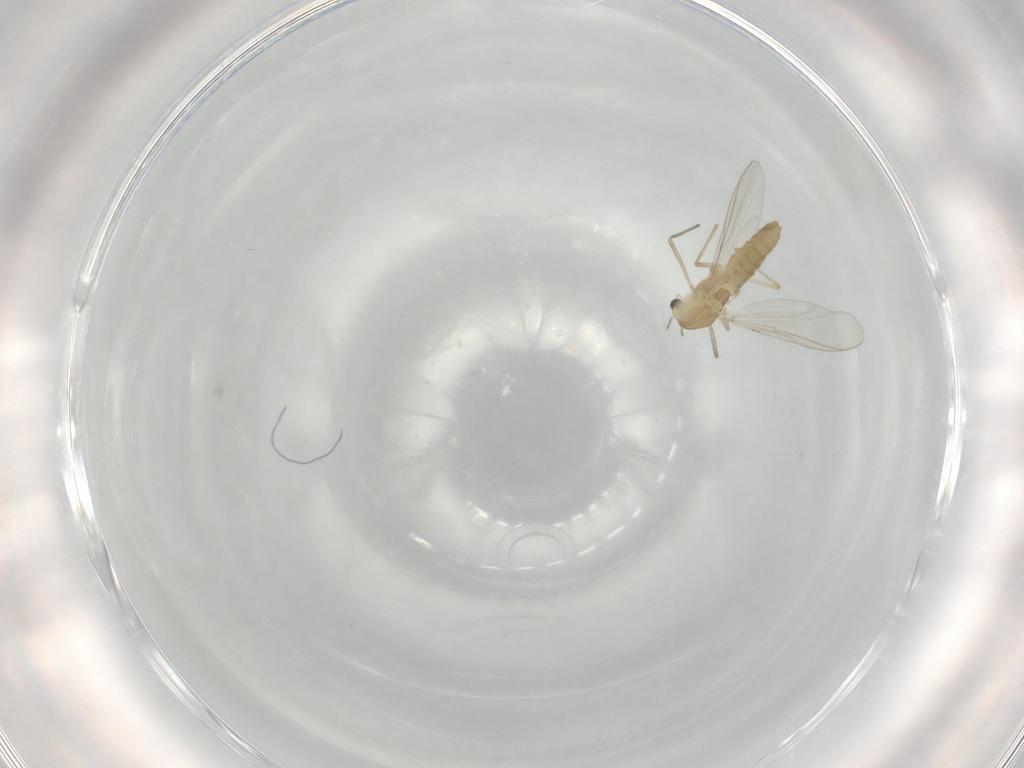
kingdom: Animalia
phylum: Arthropoda
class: Insecta
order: Diptera
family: Chironomidae
